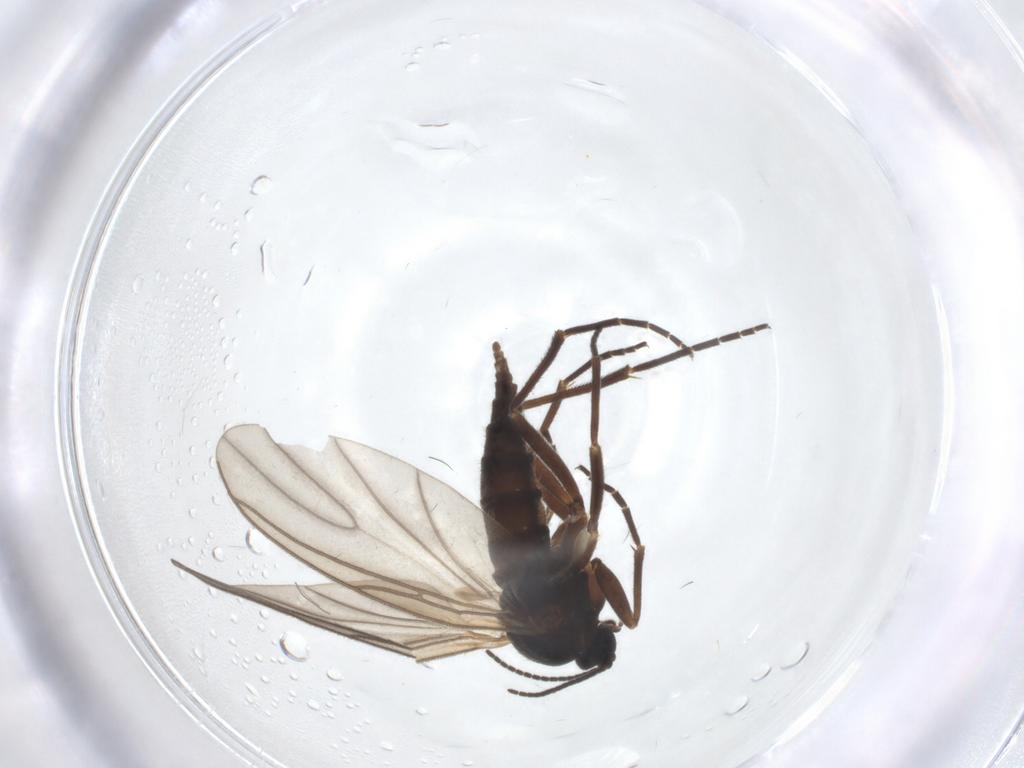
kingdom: Animalia
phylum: Arthropoda
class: Insecta
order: Diptera
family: Sciaridae
